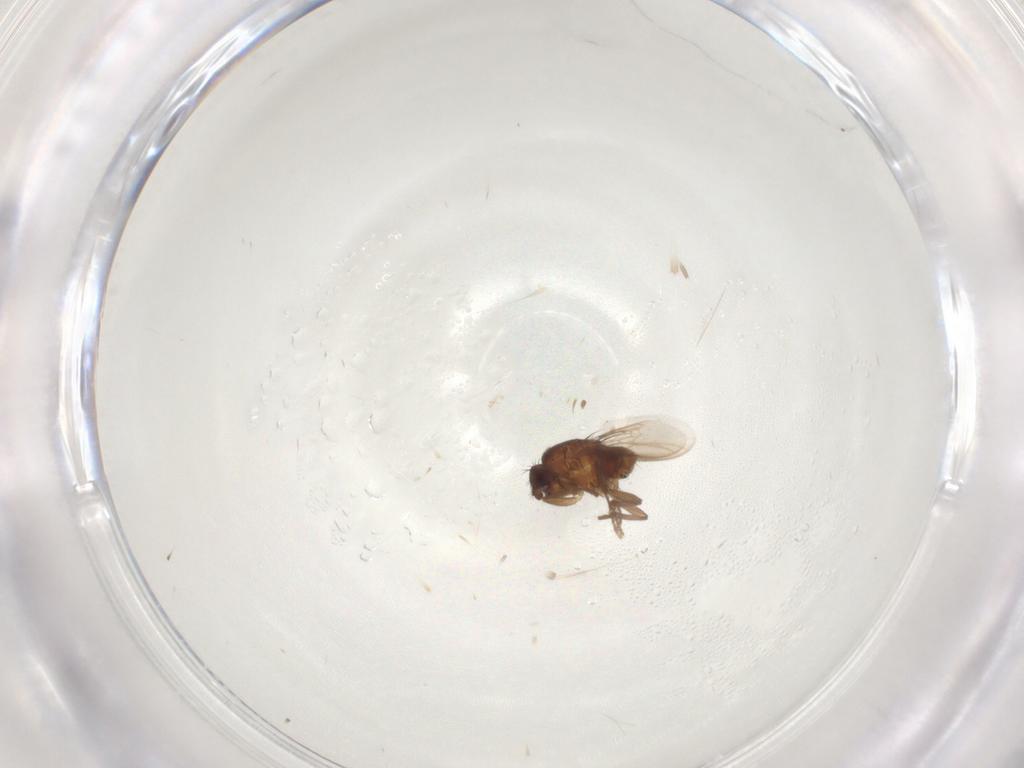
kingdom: Animalia
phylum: Arthropoda
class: Insecta
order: Diptera
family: Sphaeroceridae
